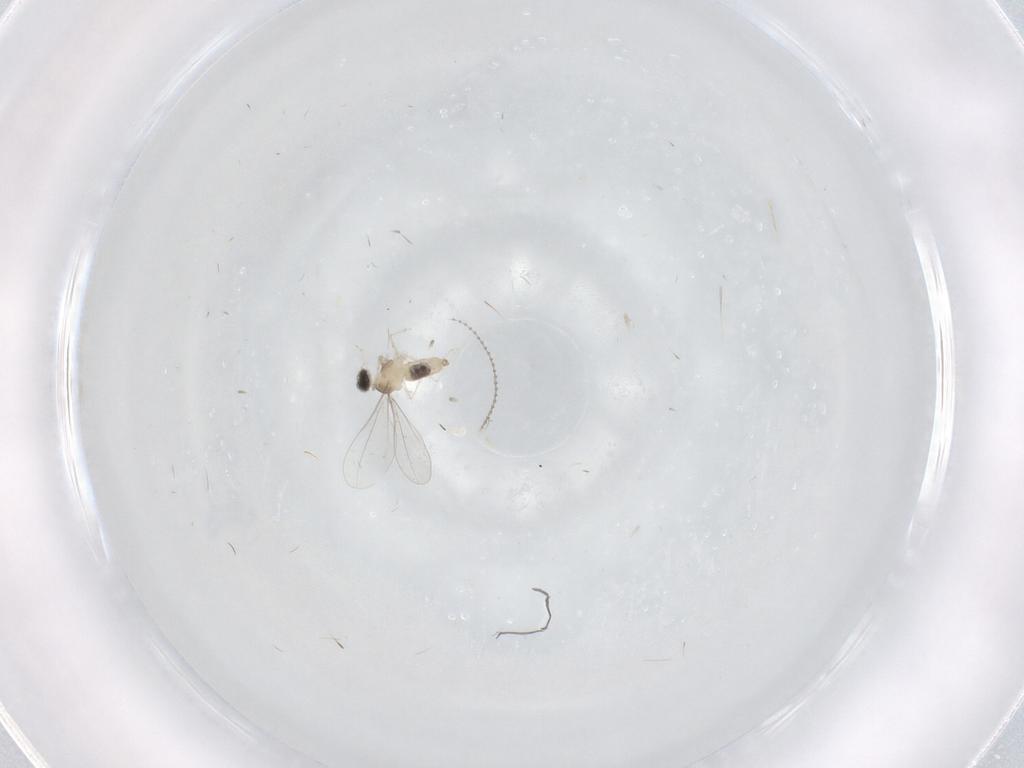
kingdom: Animalia
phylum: Arthropoda
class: Insecta
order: Diptera
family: Cecidomyiidae
